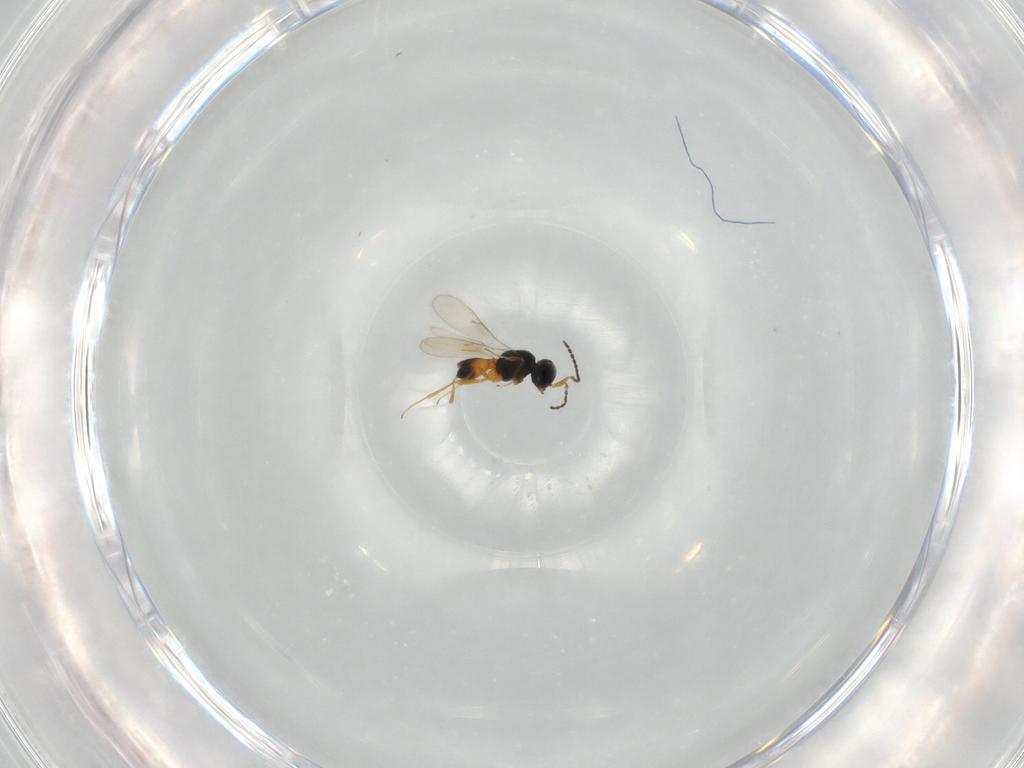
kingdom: Animalia
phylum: Arthropoda
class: Insecta
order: Hymenoptera
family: Scelionidae
